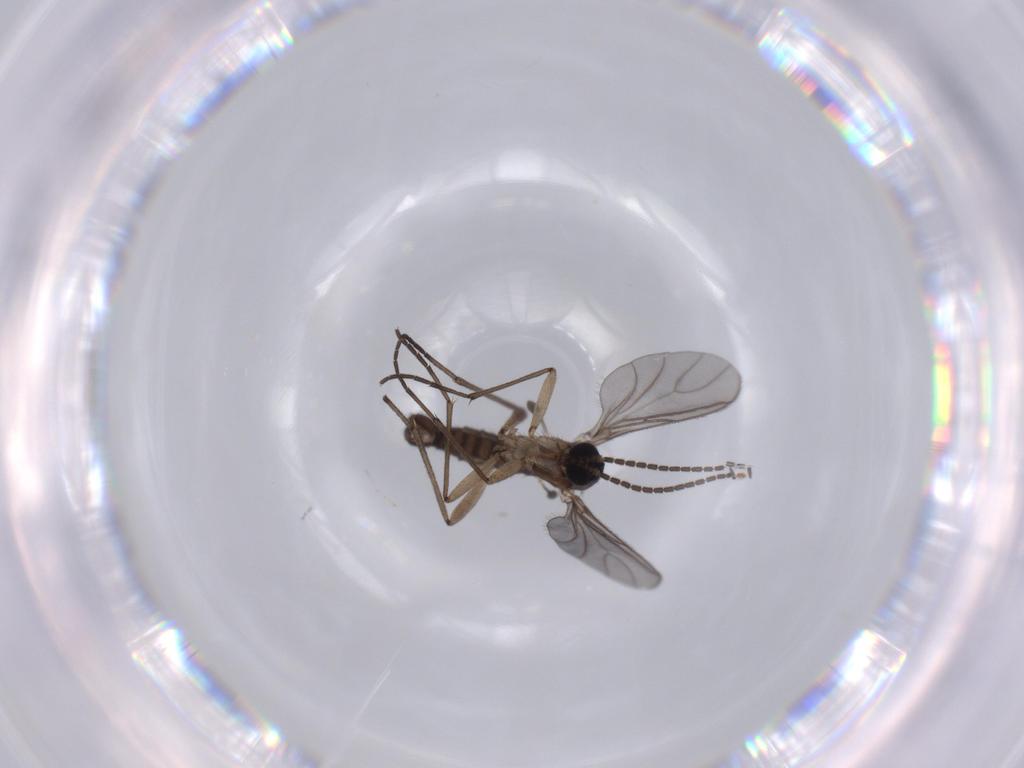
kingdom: Animalia
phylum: Arthropoda
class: Insecta
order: Diptera
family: Sciaridae
